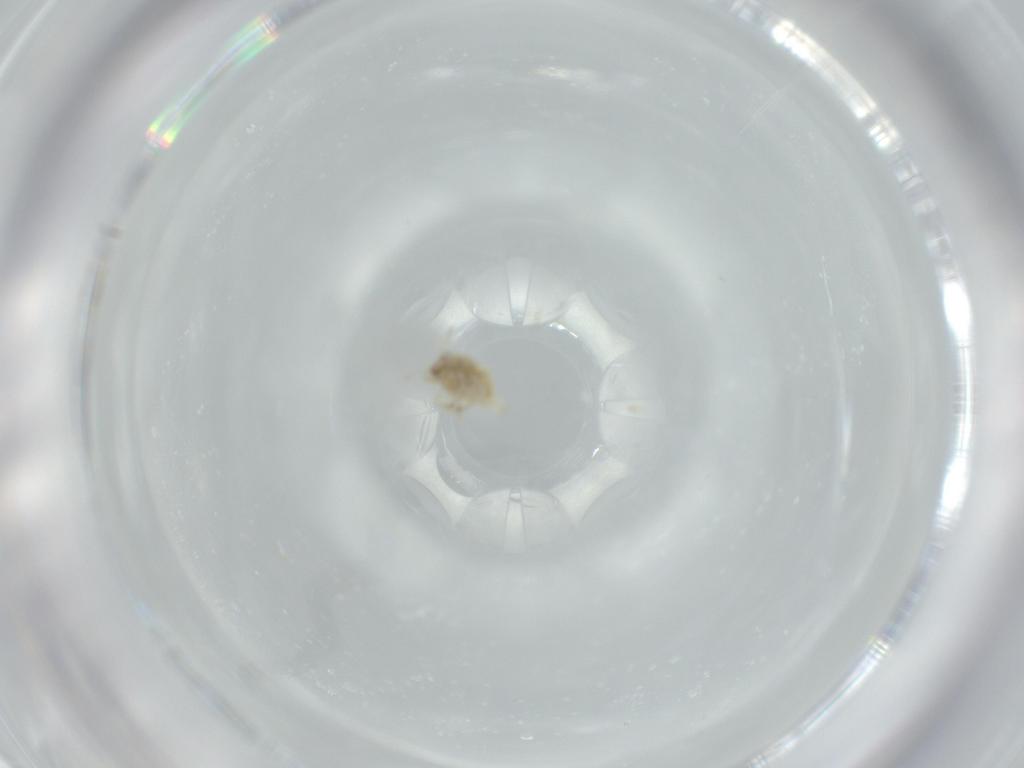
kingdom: Animalia
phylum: Arthropoda
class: Insecta
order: Neuroptera
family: Coniopterygidae
